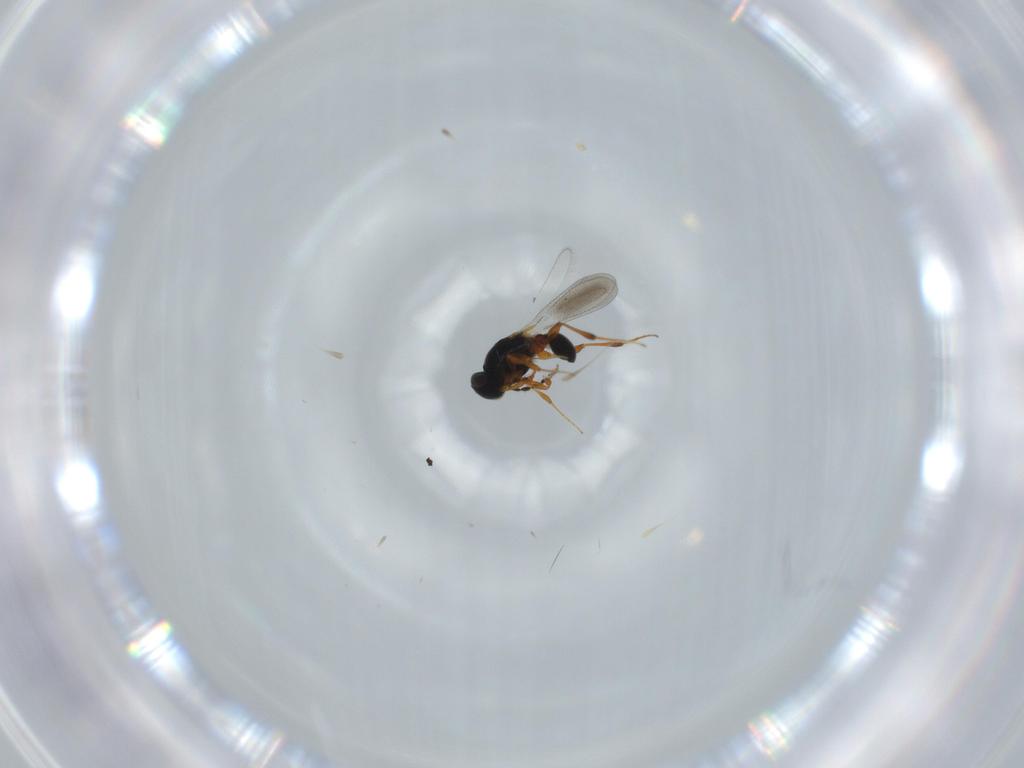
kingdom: Animalia
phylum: Arthropoda
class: Insecta
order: Hymenoptera
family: Platygastridae
